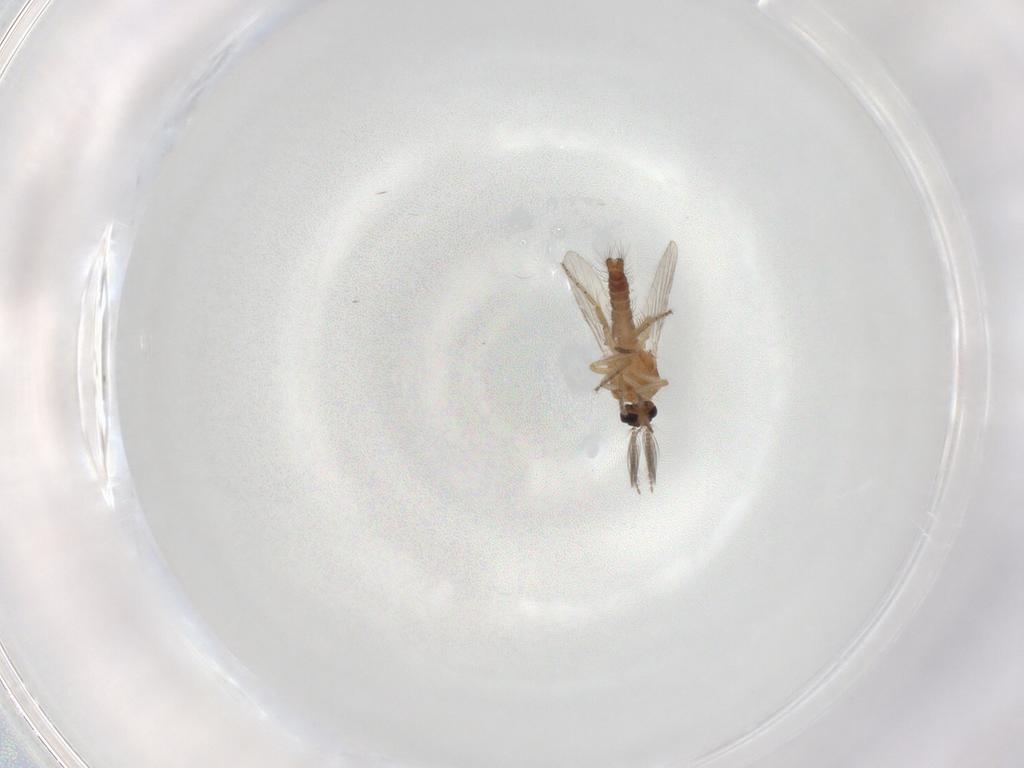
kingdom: Animalia
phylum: Arthropoda
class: Insecta
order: Diptera
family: Ceratopogonidae
